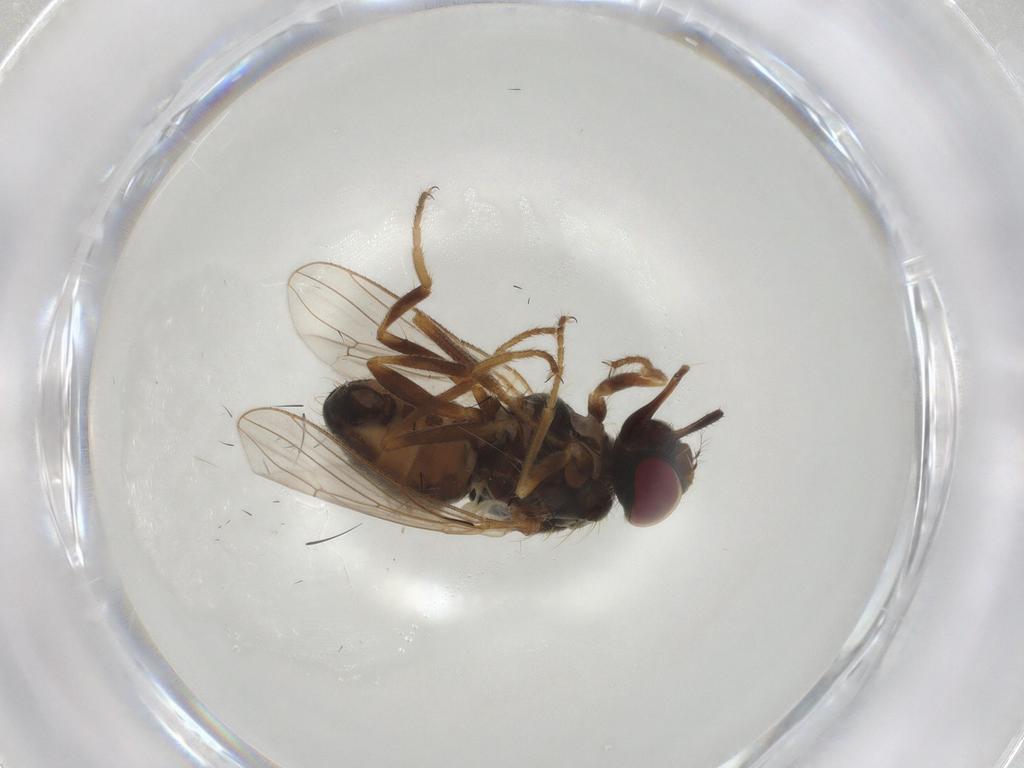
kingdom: Animalia
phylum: Arthropoda
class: Insecta
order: Diptera
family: Muscidae
